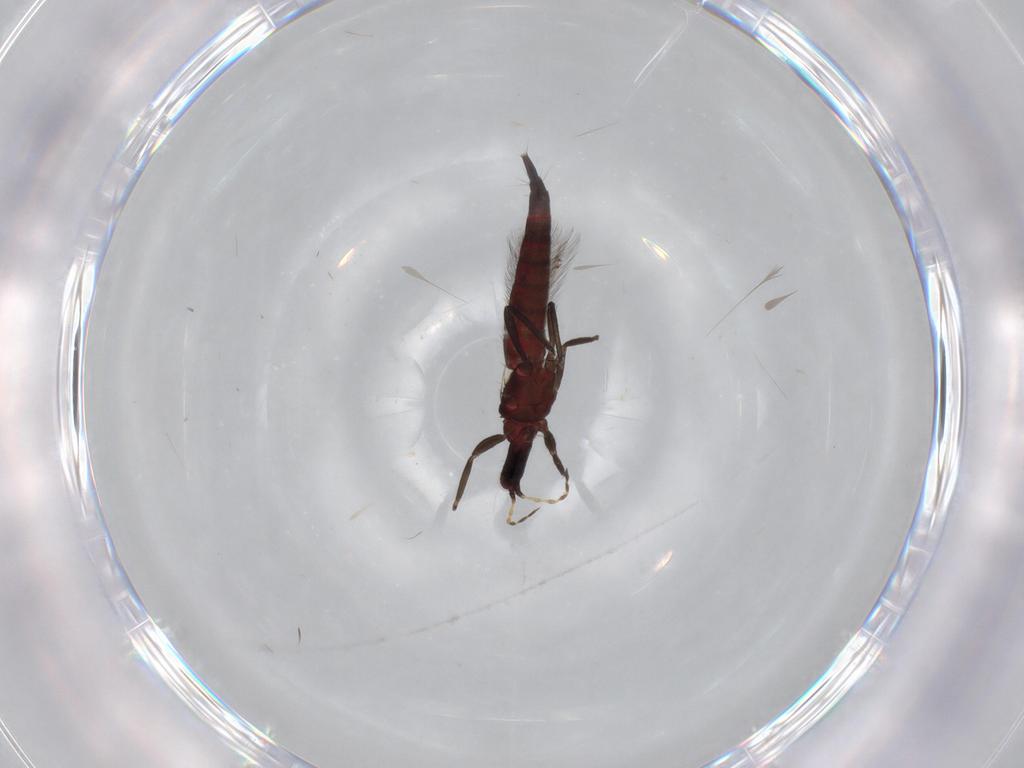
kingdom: Animalia
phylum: Arthropoda
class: Insecta
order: Thysanoptera
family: Phlaeothripidae
